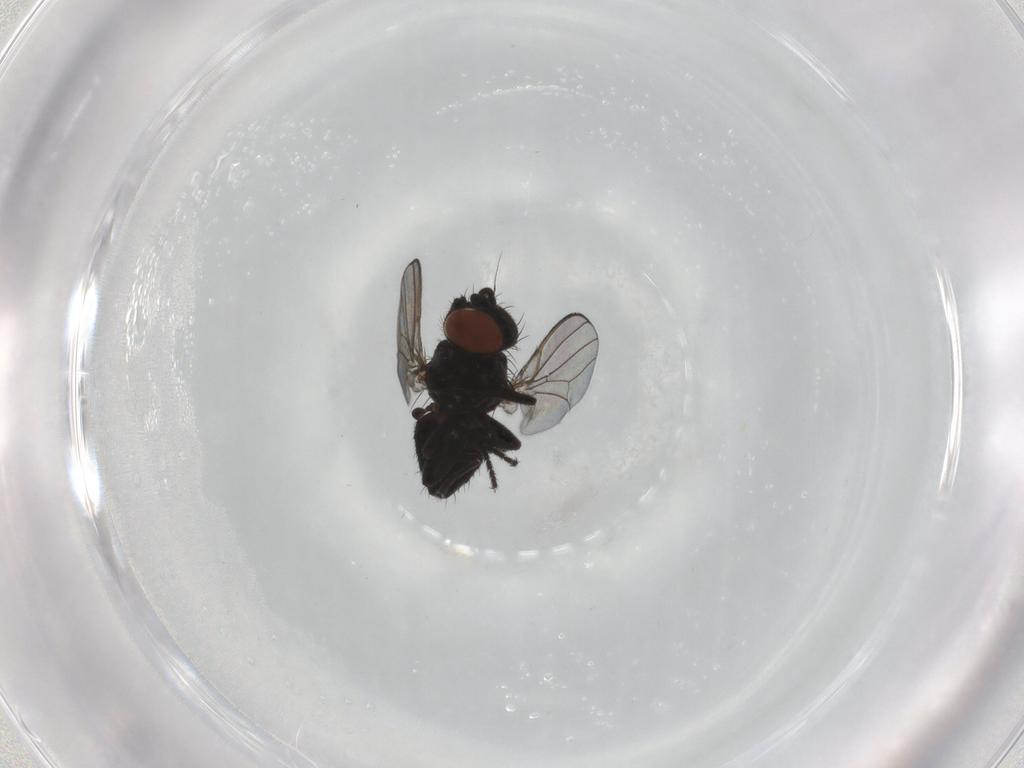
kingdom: Animalia
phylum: Arthropoda
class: Insecta
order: Diptera
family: Milichiidae
